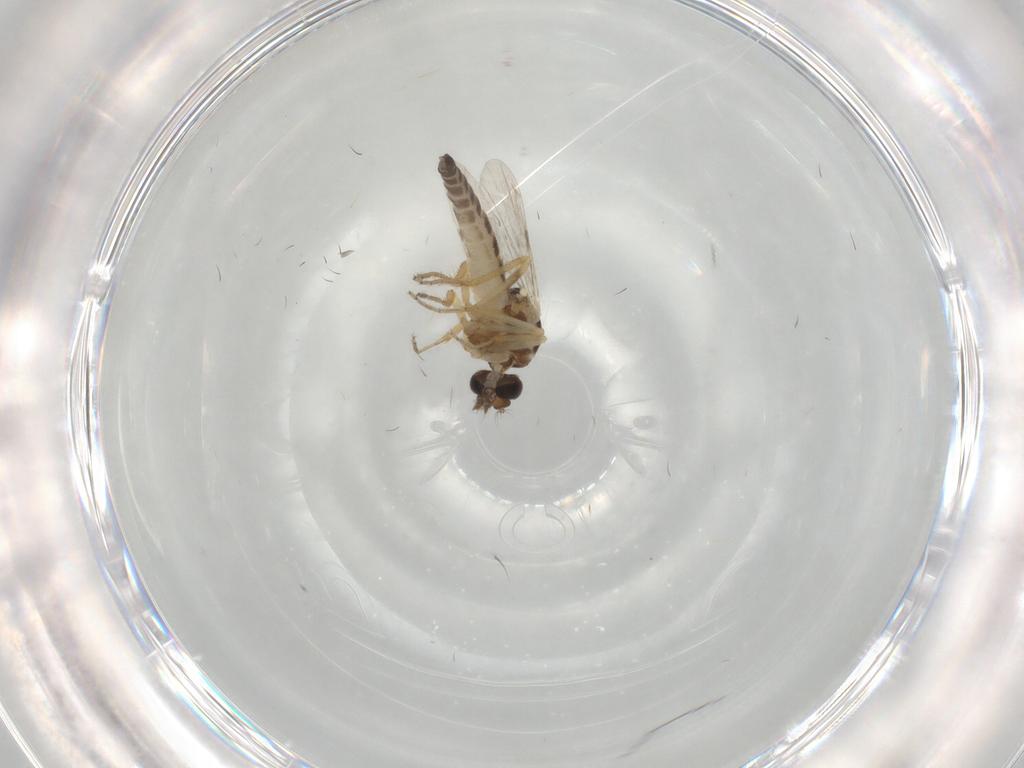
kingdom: Animalia
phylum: Arthropoda
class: Insecta
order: Diptera
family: Ceratopogonidae
